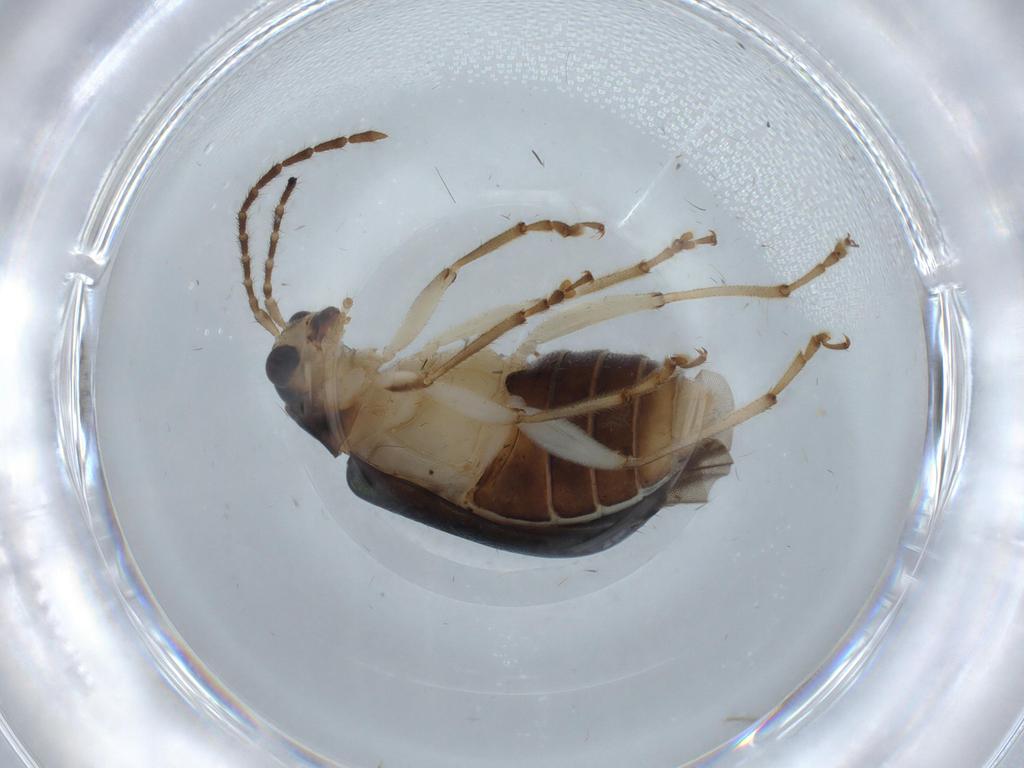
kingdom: Animalia
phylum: Arthropoda
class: Insecta
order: Coleoptera
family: Chrysomelidae
